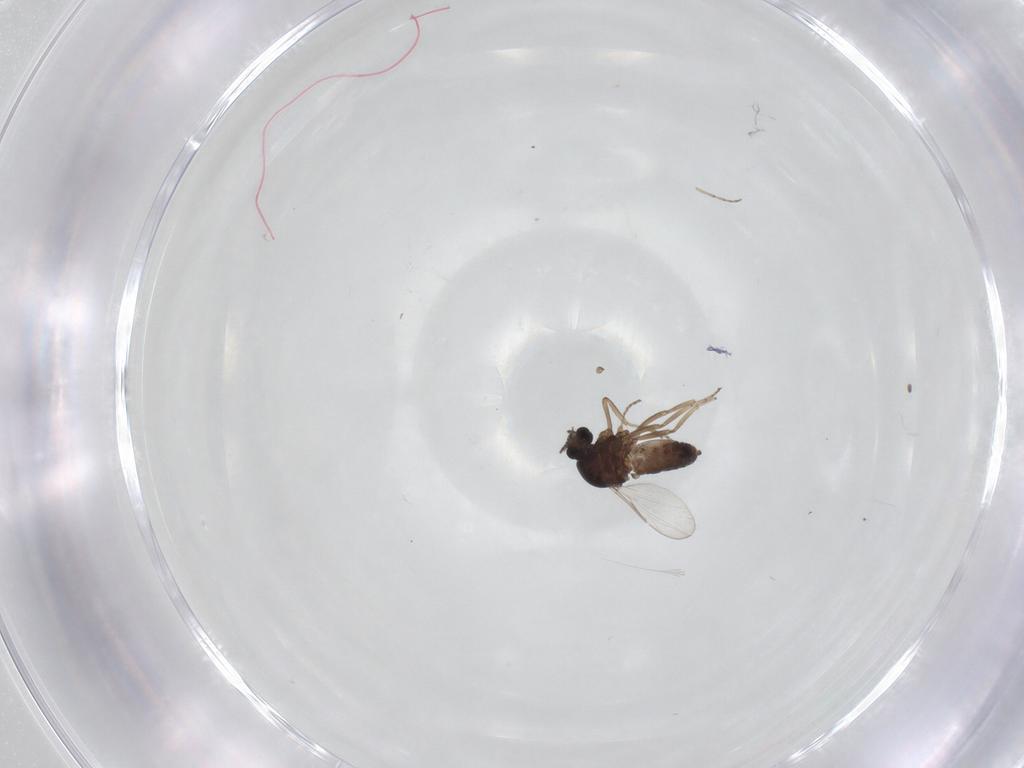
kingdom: Animalia
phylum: Arthropoda
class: Insecta
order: Diptera
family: Ceratopogonidae
